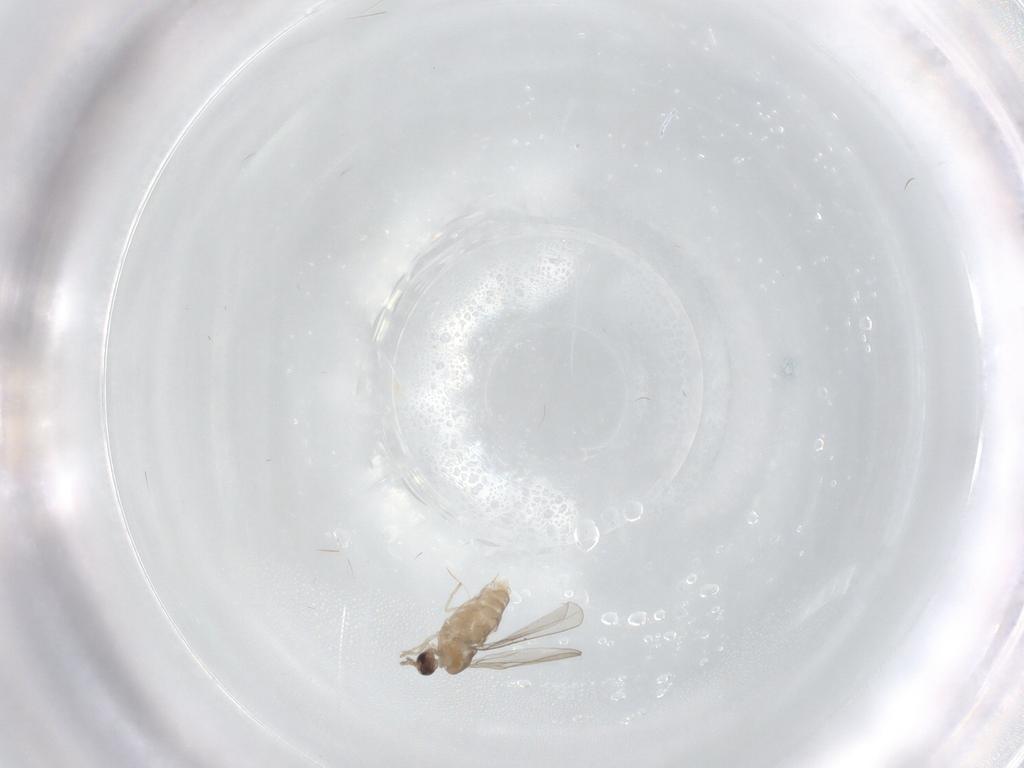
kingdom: Animalia
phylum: Arthropoda
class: Insecta
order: Diptera
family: Cecidomyiidae
